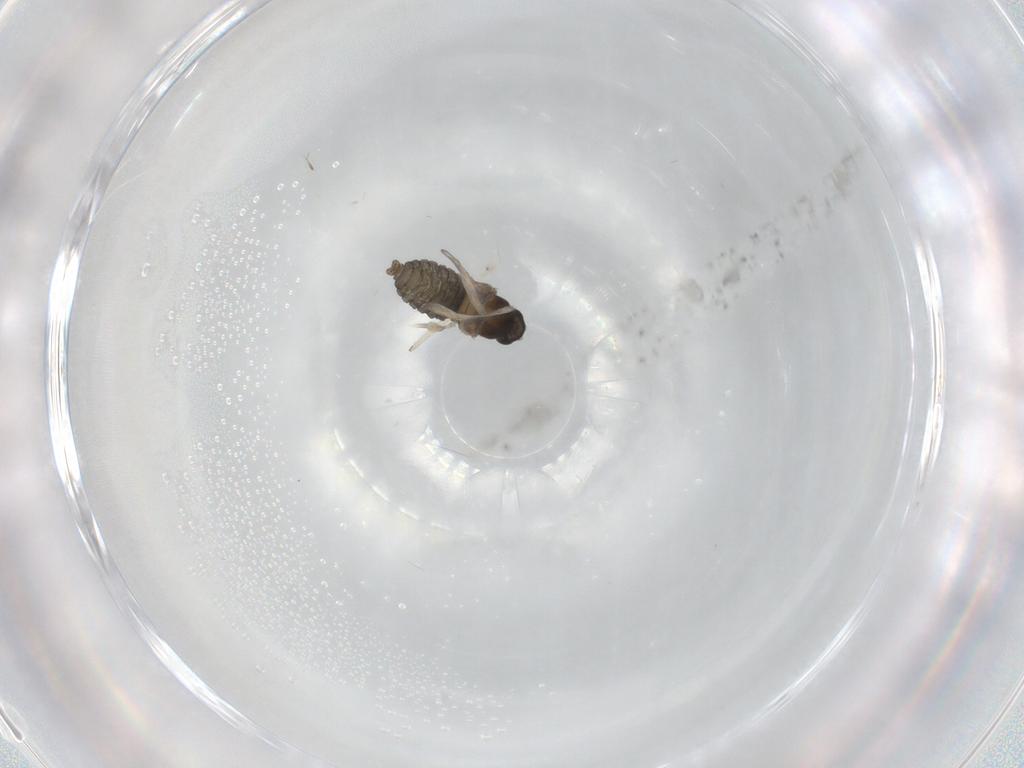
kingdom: Animalia
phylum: Arthropoda
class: Insecta
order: Diptera
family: Cecidomyiidae
